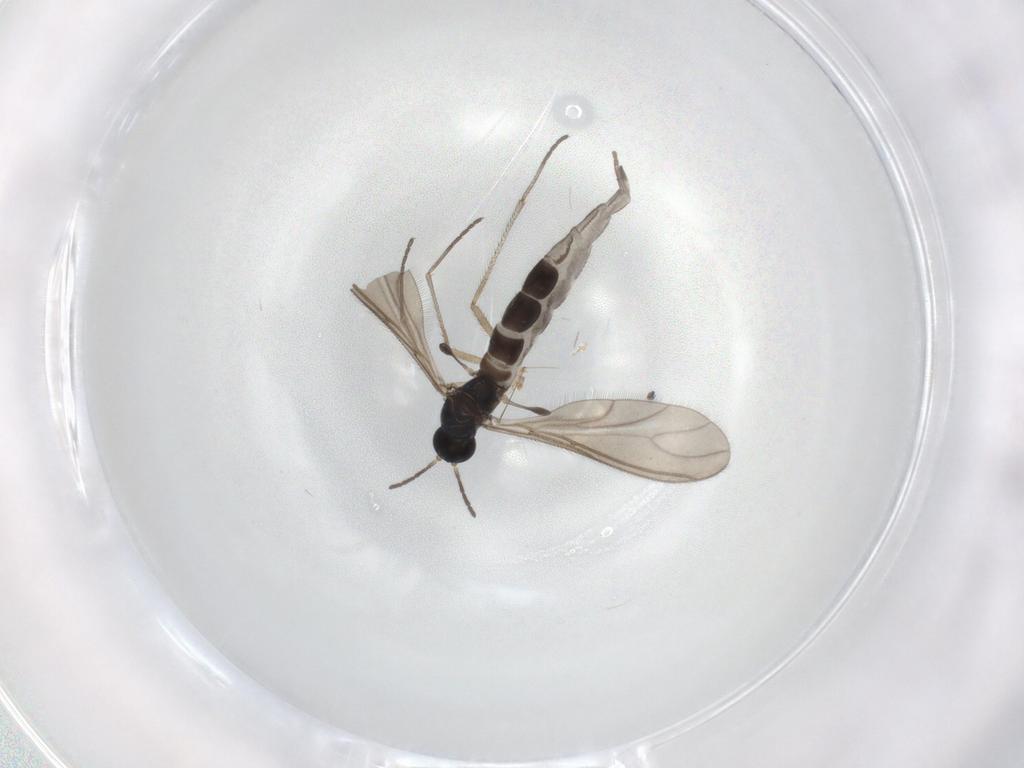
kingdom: Animalia
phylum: Arthropoda
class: Insecta
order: Diptera
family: Sciaridae
